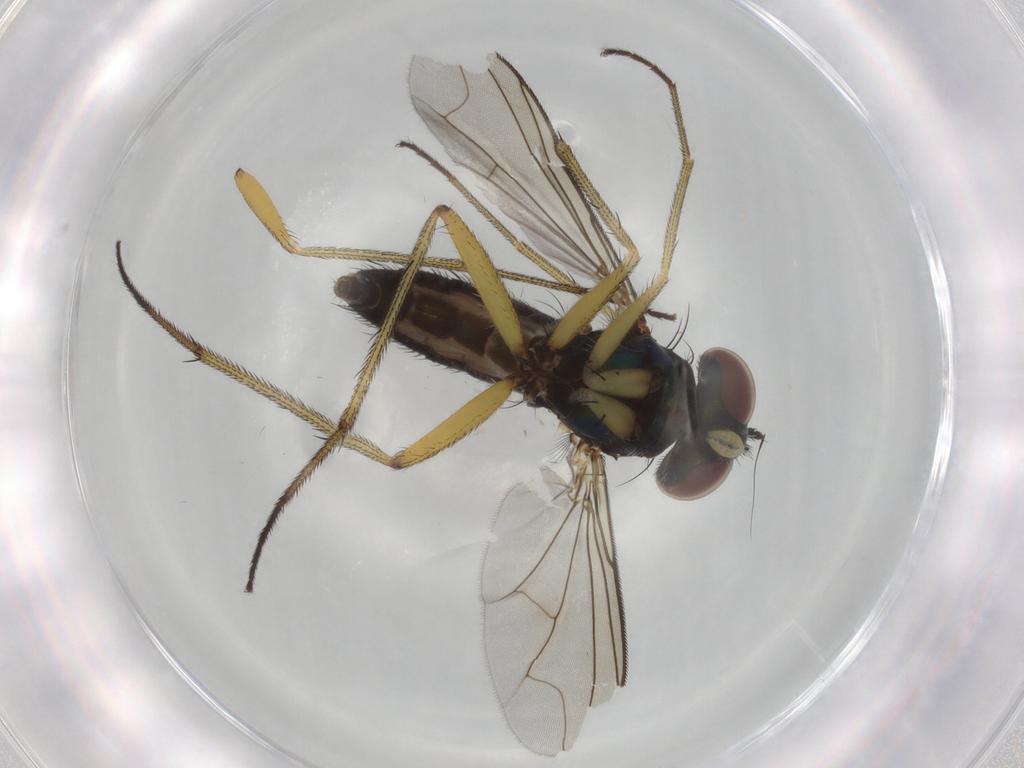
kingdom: Animalia
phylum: Arthropoda
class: Insecta
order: Diptera
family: Dolichopodidae
